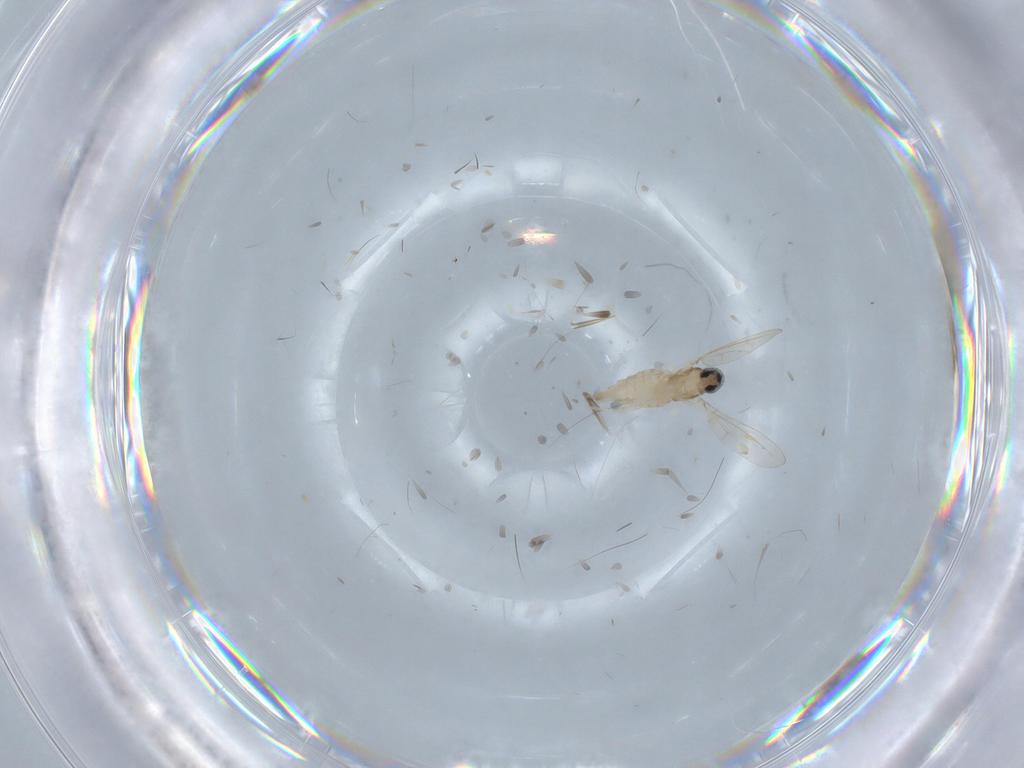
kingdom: Animalia
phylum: Arthropoda
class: Insecta
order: Diptera
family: Cecidomyiidae
